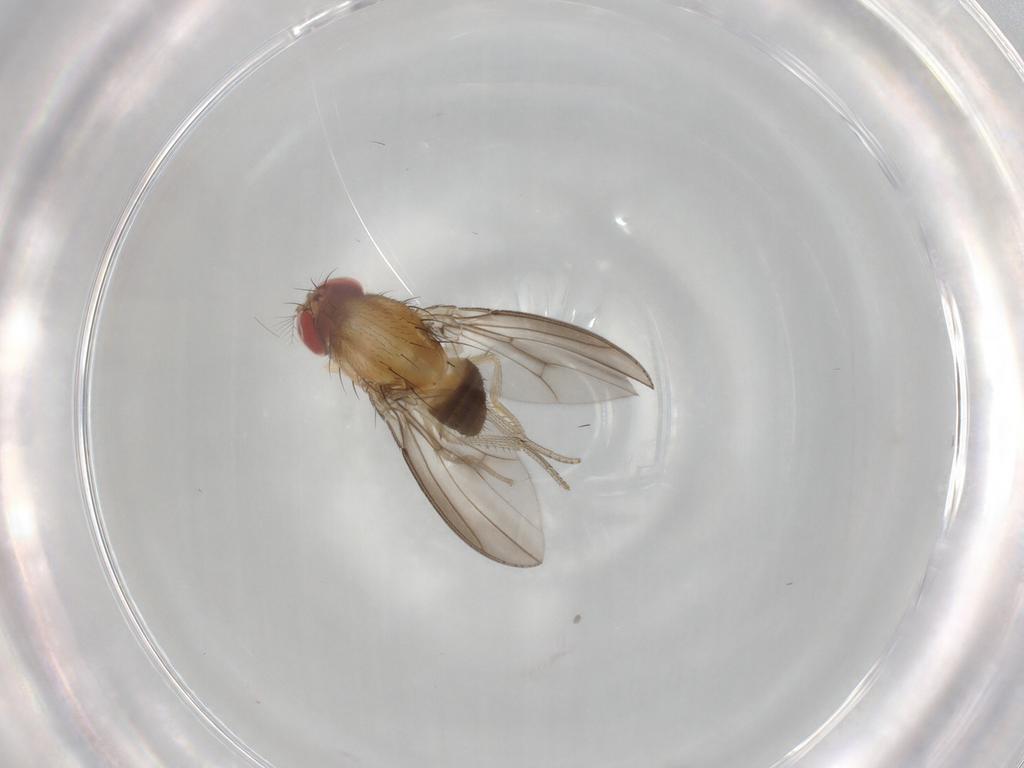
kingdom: Animalia
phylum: Arthropoda
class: Insecta
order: Diptera
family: Drosophilidae
